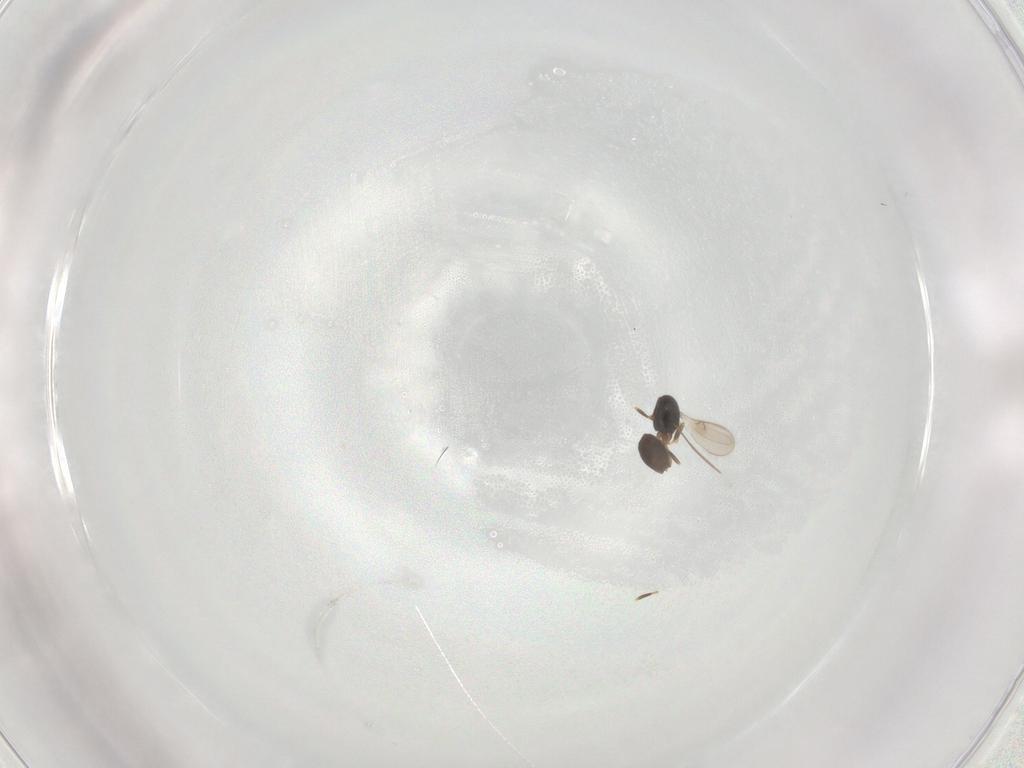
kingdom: Animalia
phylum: Arthropoda
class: Insecta
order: Hymenoptera
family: Scelionidae
